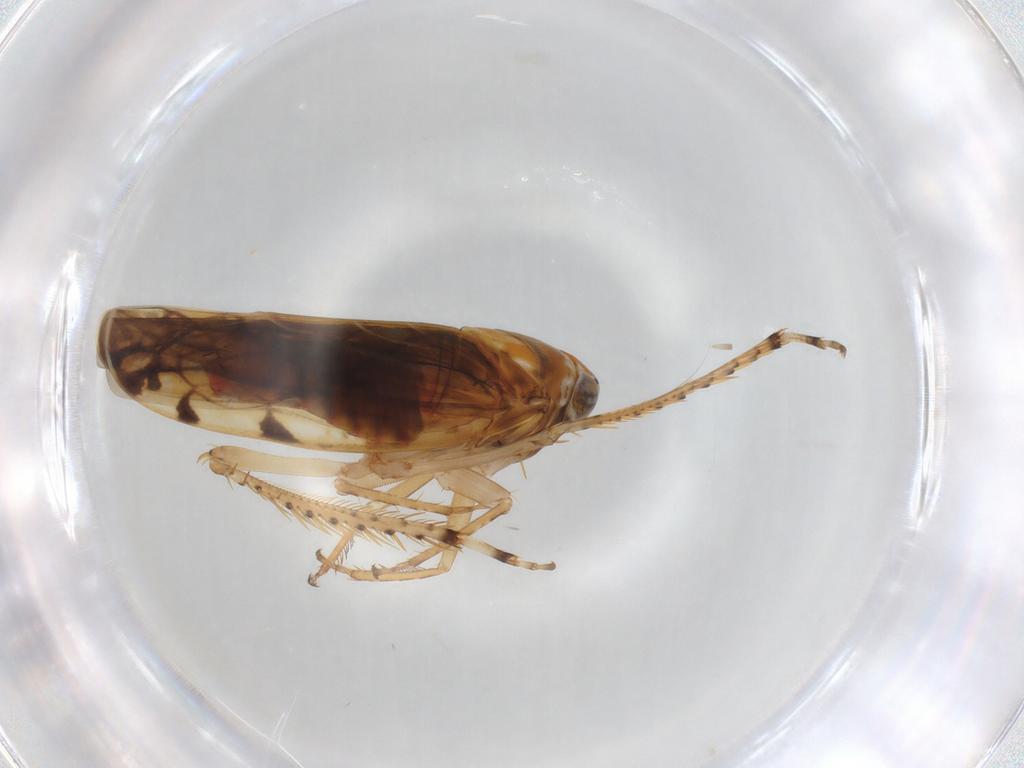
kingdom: Animalia
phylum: Arthropoda
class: Insecta
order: Hemiptera
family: Cicadellidae
